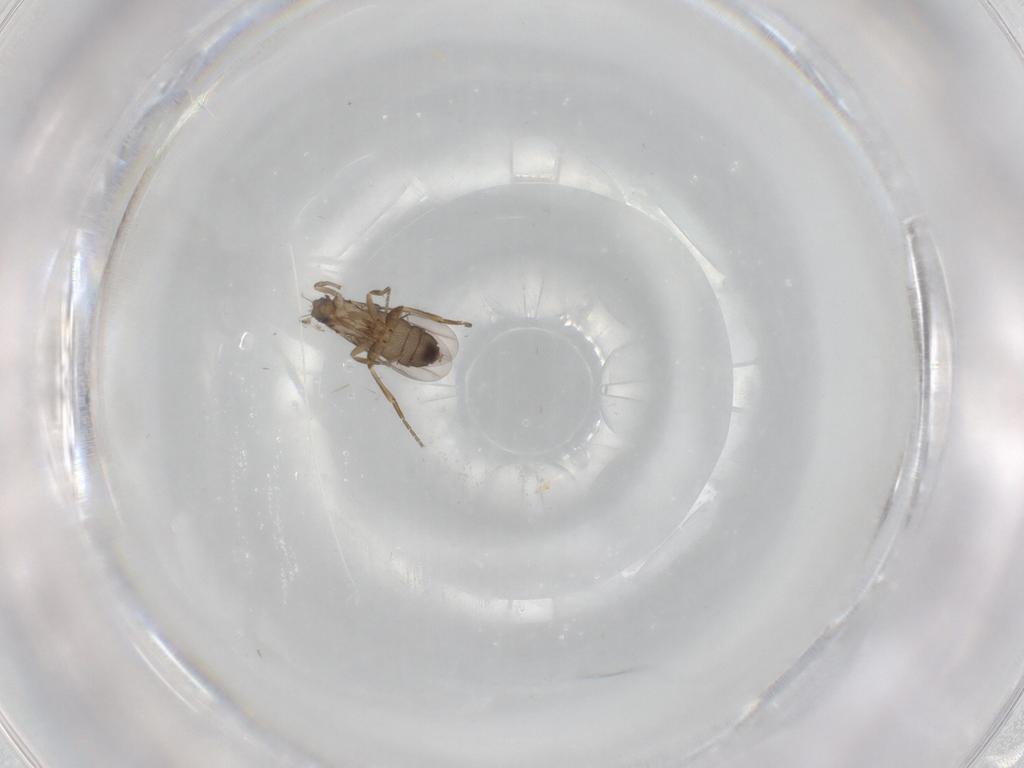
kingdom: Animalia
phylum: Arthropoda
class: Insecta
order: Diptera
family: Phoridae
